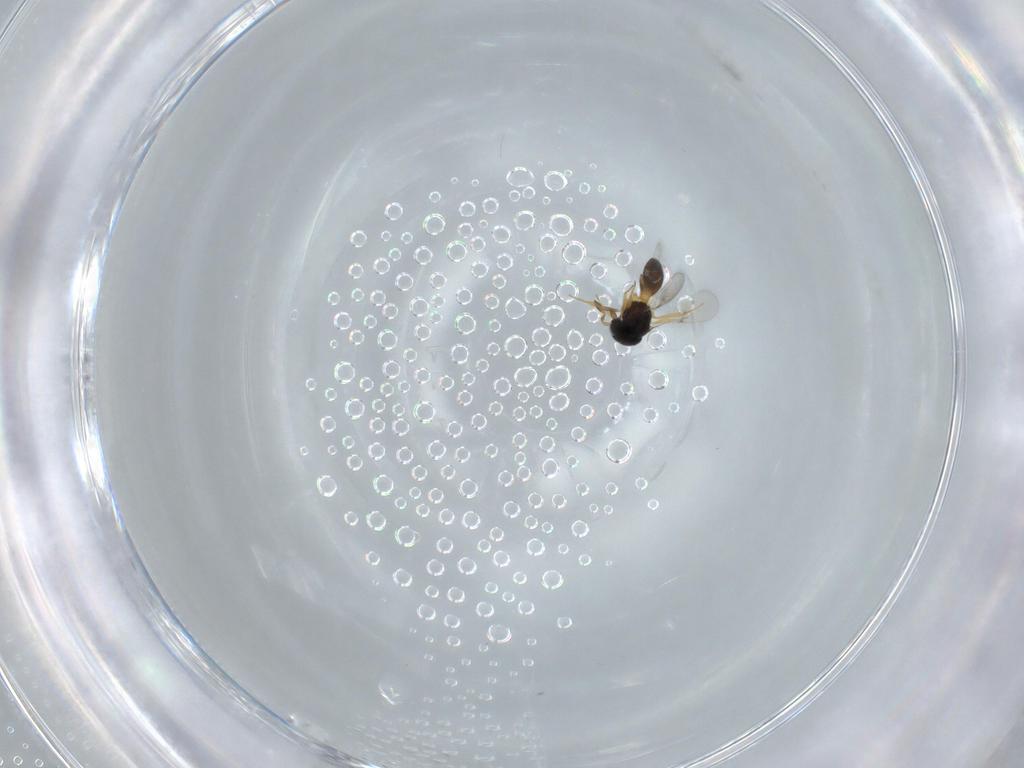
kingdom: Animalia
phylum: Arthropoda
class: Insecta
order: Hymenoptera
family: Scelionidae
